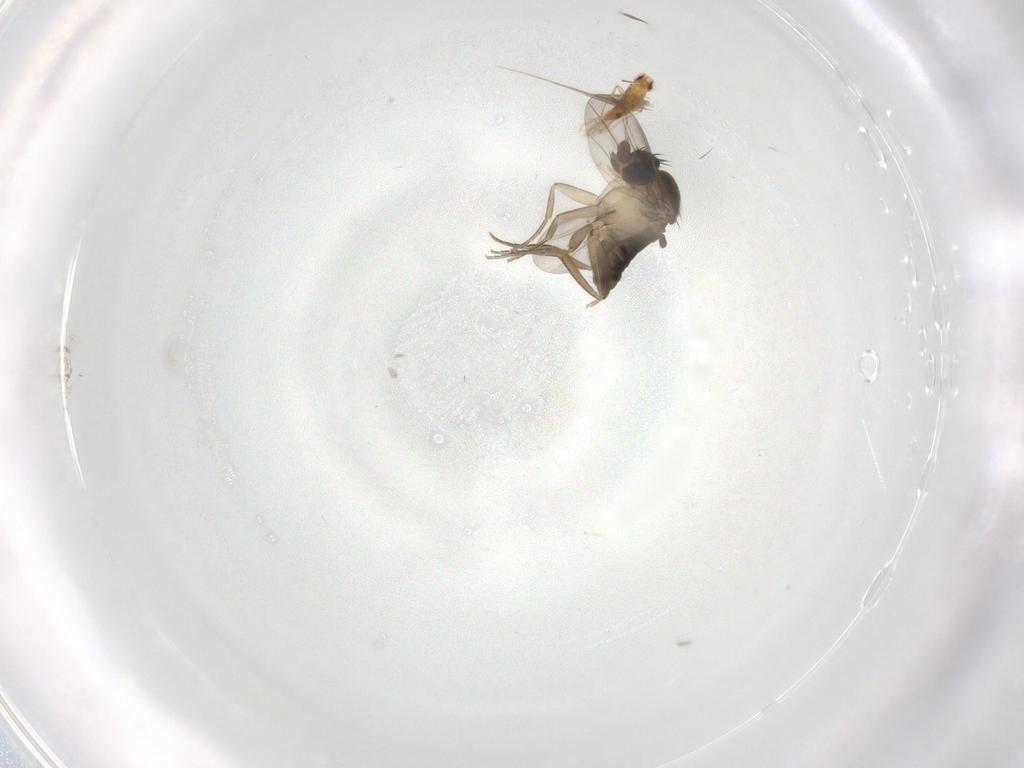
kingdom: Animalia
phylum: Arthropoda
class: Insecta
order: Diptera
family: Phoridae
